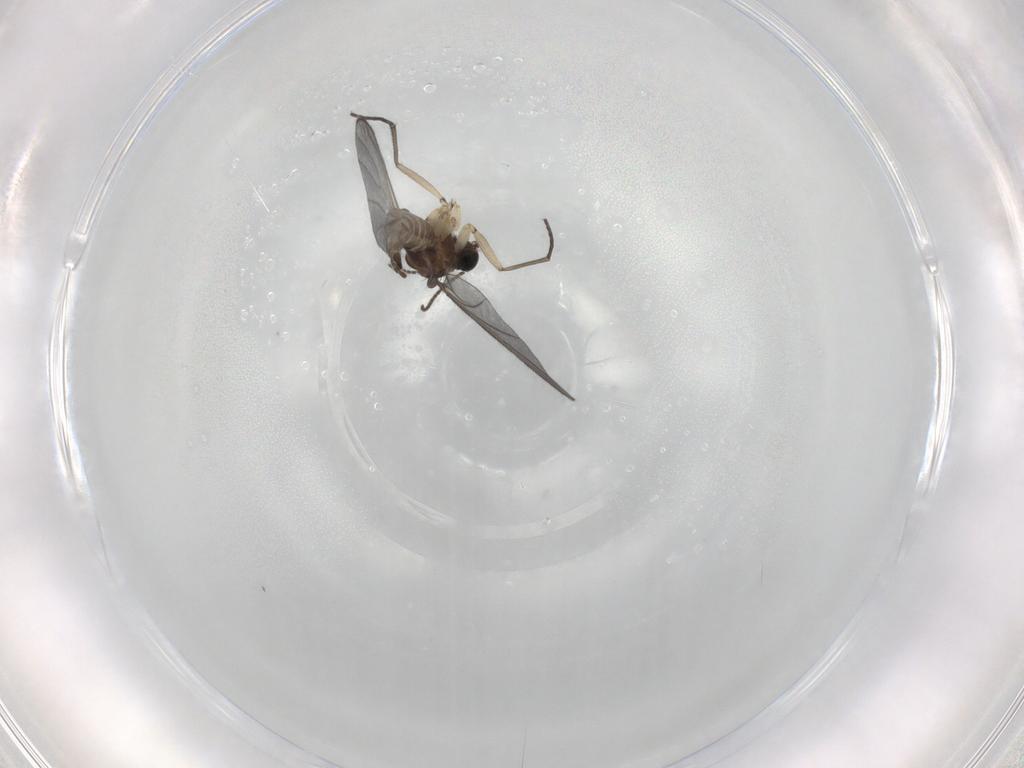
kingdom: Animalia
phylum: Arthropoda
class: Insecta
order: Diptera
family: Sciaridae
